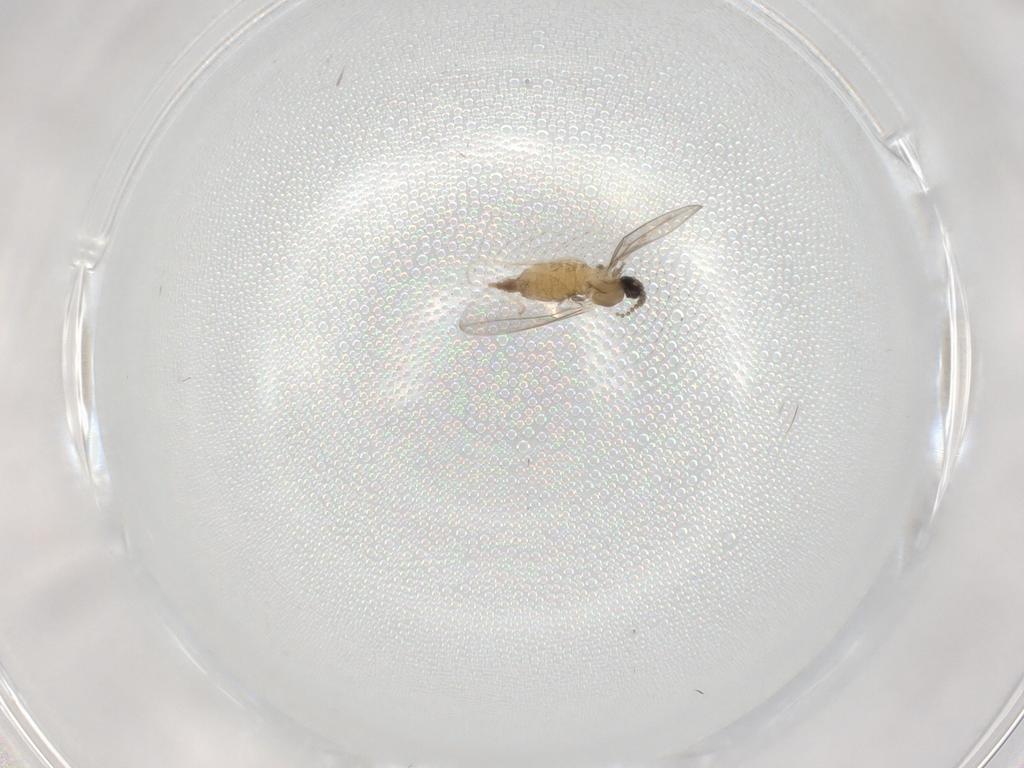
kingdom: Animalia
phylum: Arthropoda
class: Insecta
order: Diptera
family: Cecidomyiidae
